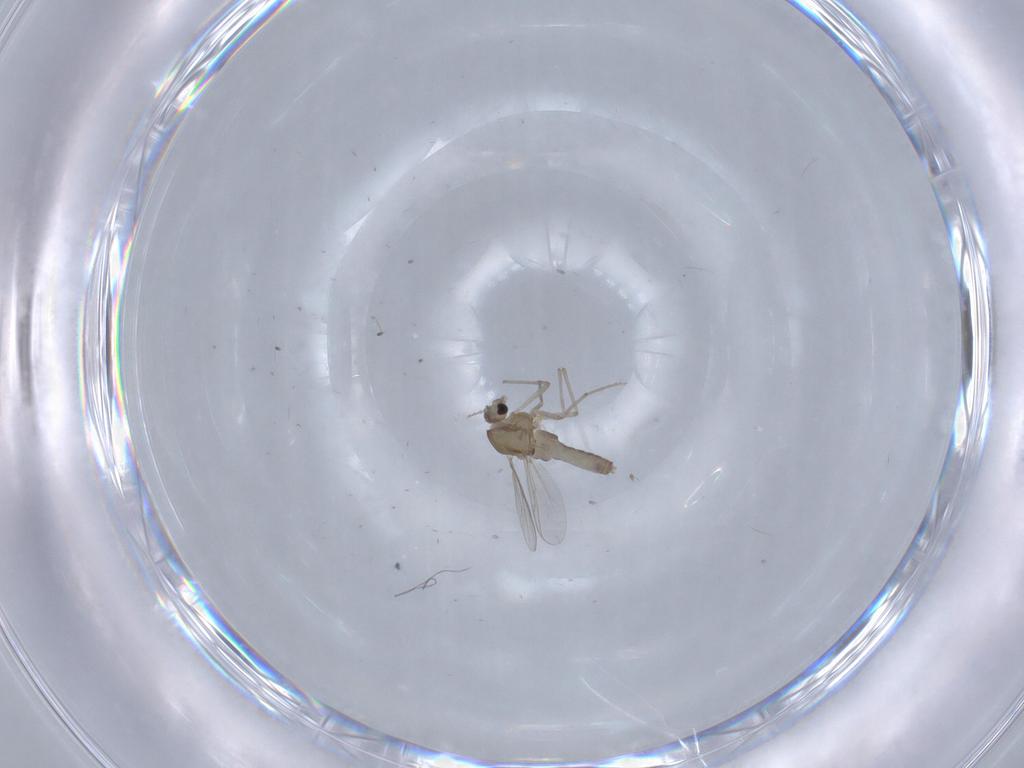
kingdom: Animalia
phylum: Arthropoda
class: Insecta
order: Diptera
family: Chironomidae
